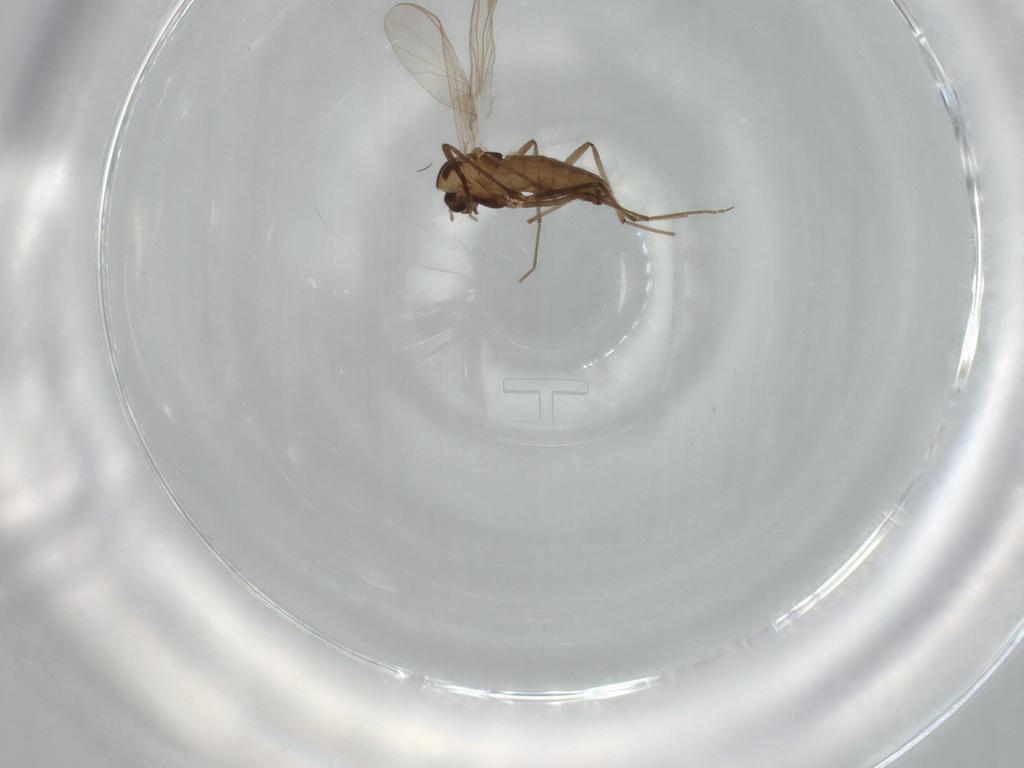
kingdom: Animalia
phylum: Arthropoda
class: Insecta
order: Diptera
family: Chironomidae
